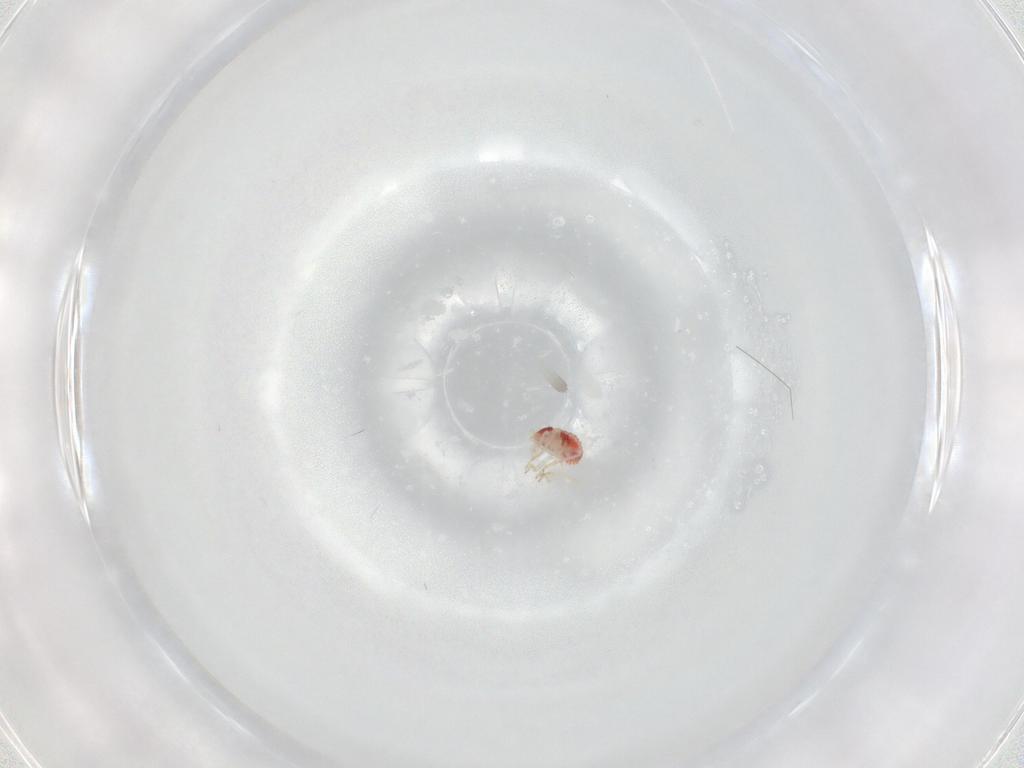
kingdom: Animalia
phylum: Arthropoda
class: Insecta
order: Hemiptera
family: Schizopteridae
